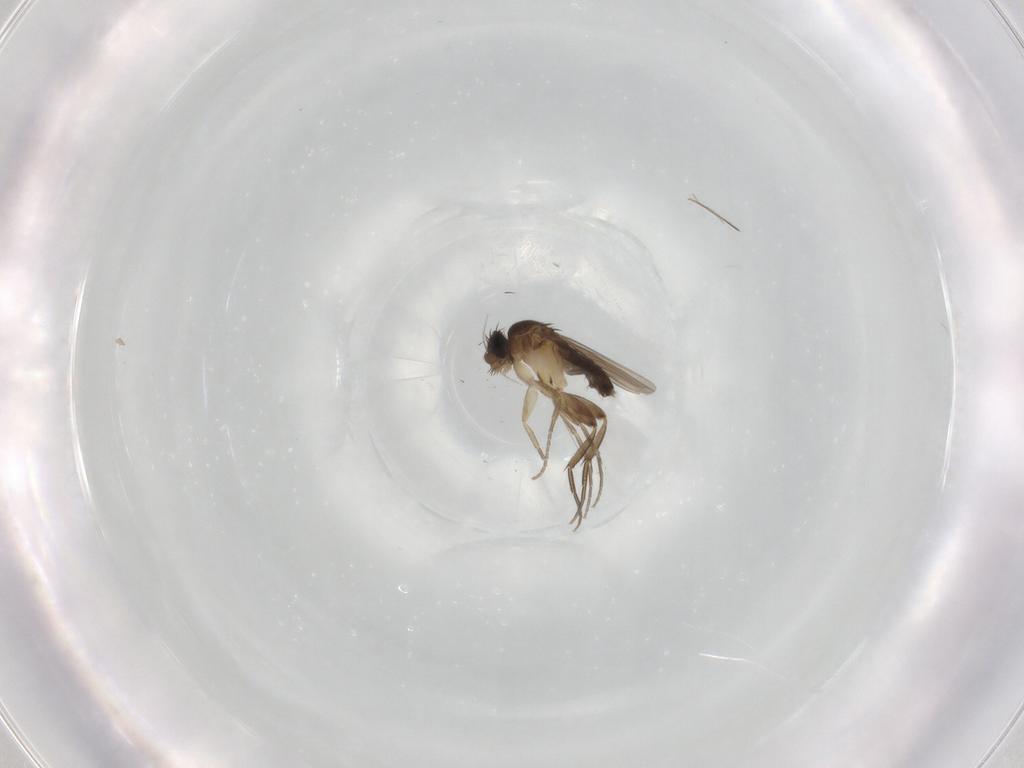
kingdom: Animalia
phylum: Arthropoda
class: Insecta
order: Diptera
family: Phoridae
